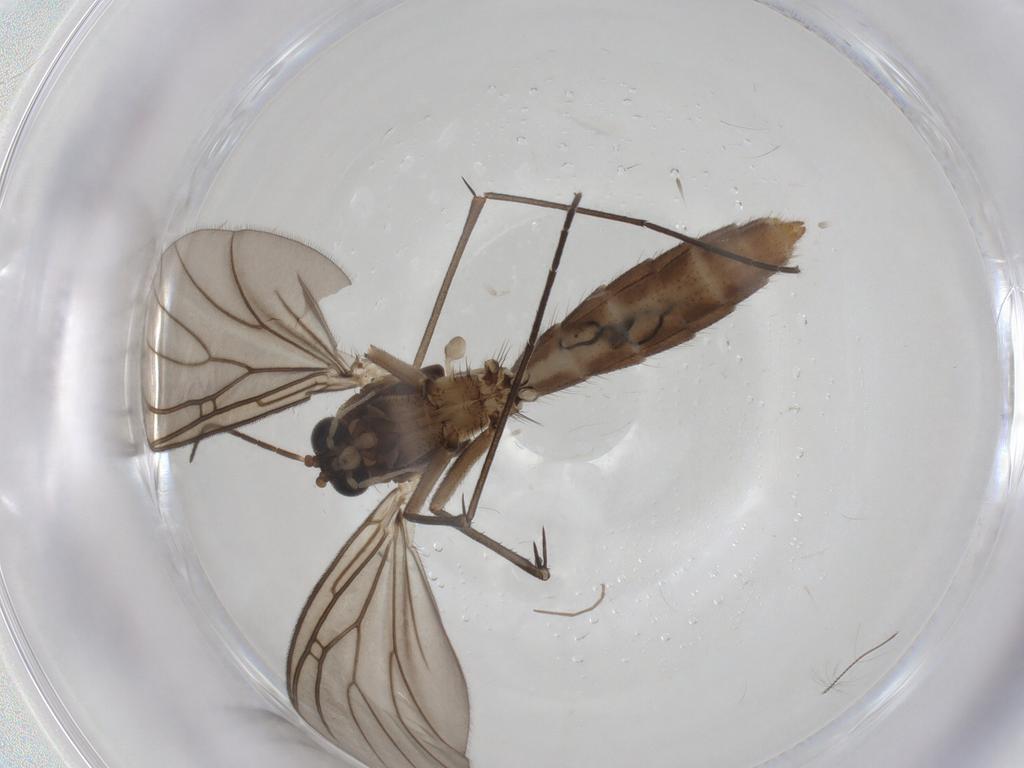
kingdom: Animalia
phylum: Arthropoda
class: Insecta
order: Diptera
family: Mycetophilidae
